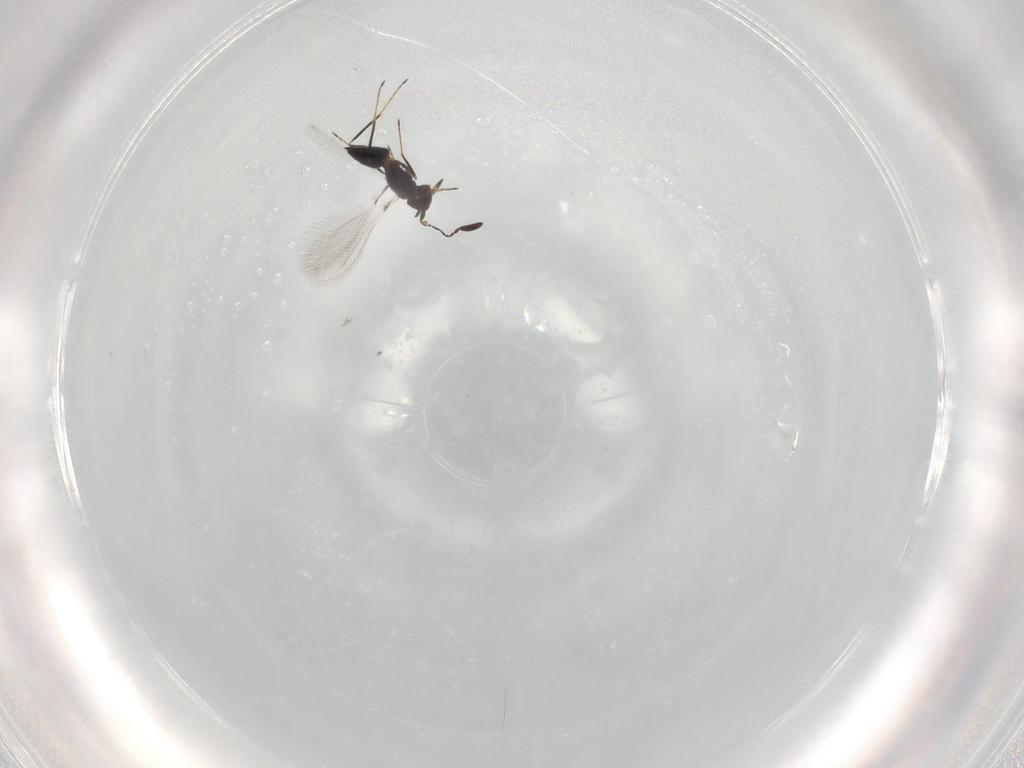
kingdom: Animalia
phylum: Arthropoda
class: Insecta
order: Hymenoptera
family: Mymaridae
